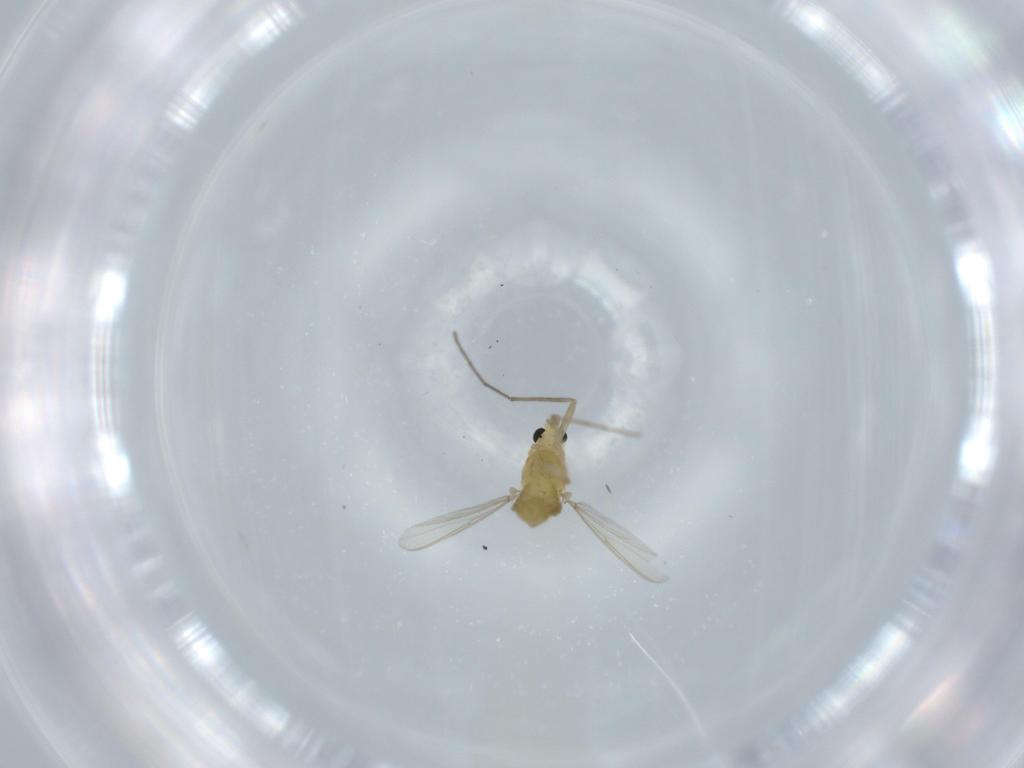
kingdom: Animalia
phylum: Arthropoda
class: Insecta
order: Diptera
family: Chironomidae
